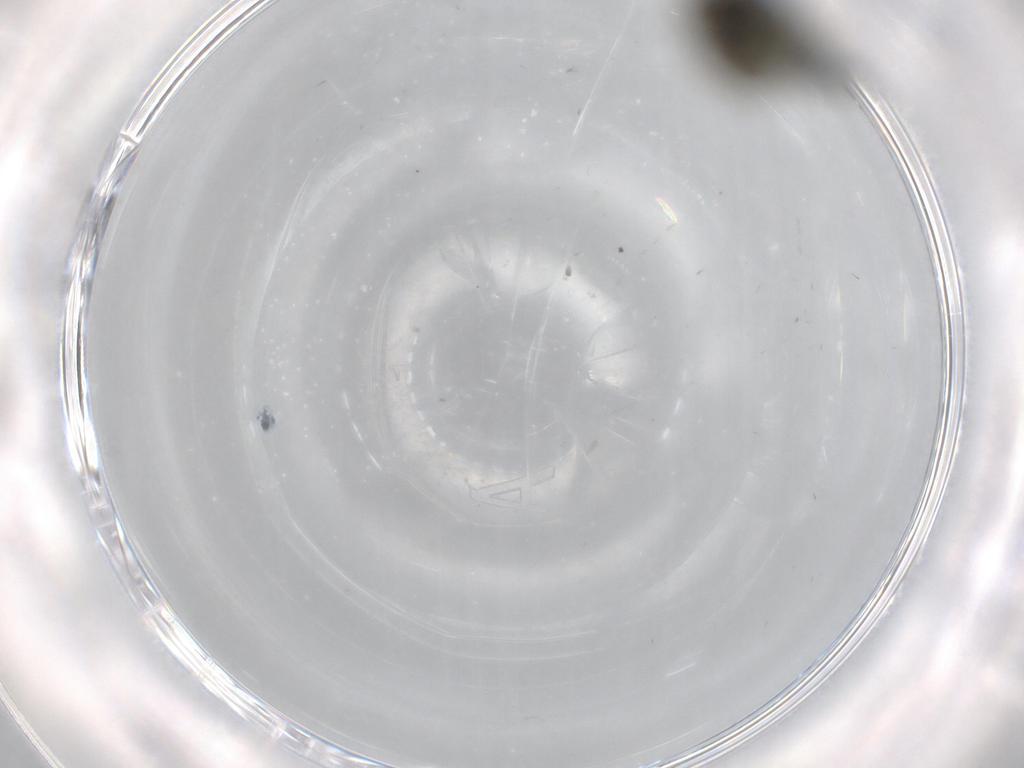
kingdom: Animalia
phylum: Arthropoda
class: Insecta
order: Diptera
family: Ceratopogonidae
